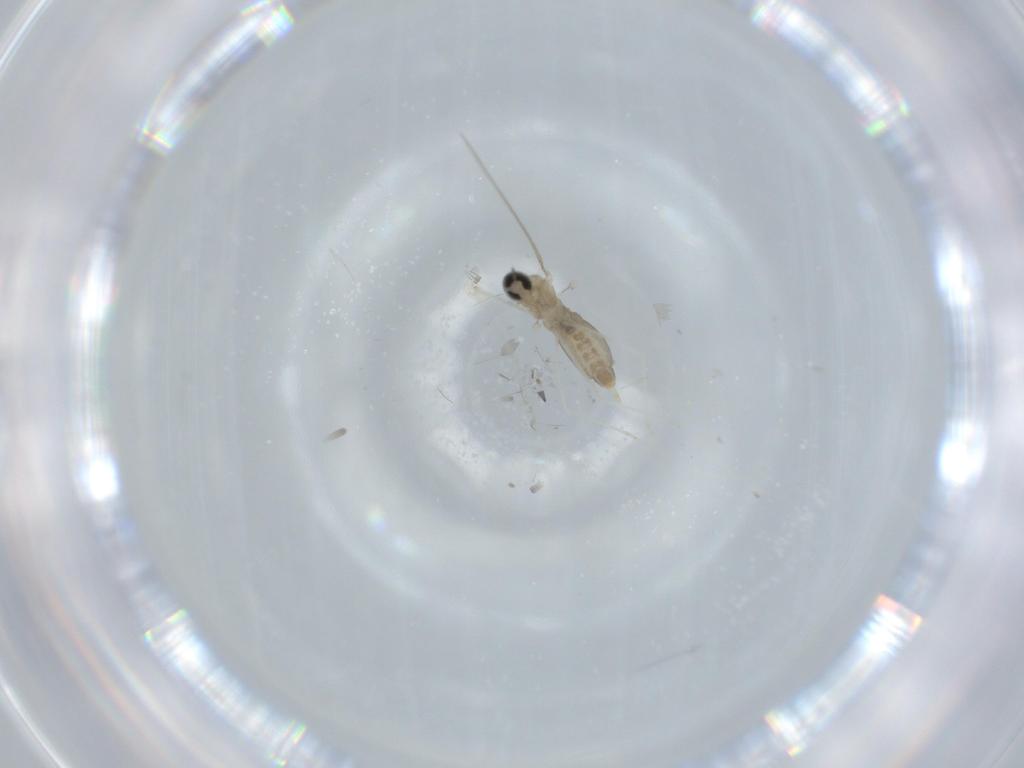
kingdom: Animalia
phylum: Arthropoda
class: Insecta
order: Diptera
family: Cecidomyiidae
